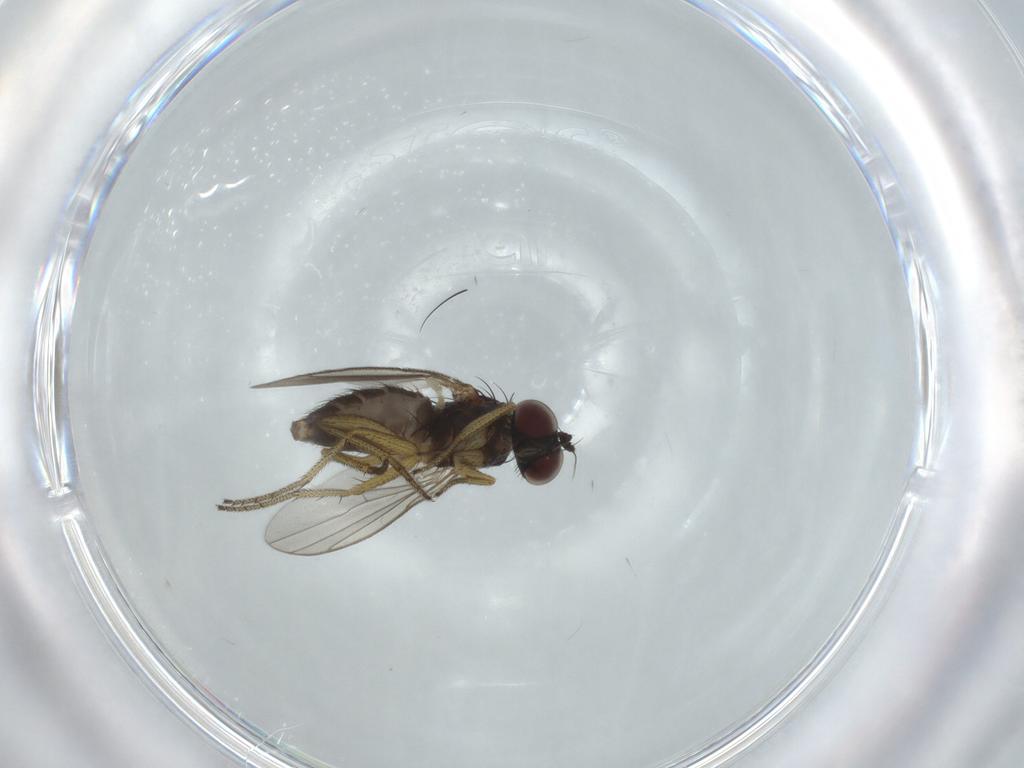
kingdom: Animalia
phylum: Arthropoda
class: Insecta
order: Diptera
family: Dolichopodidae
